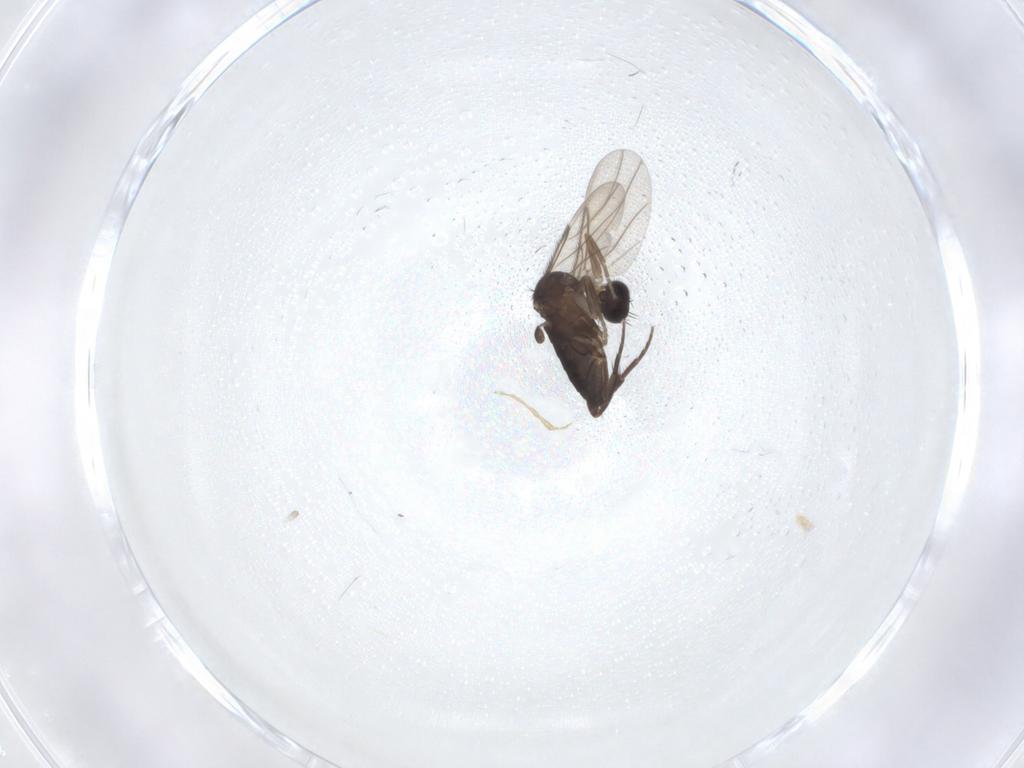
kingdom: Animalia
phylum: Arthropoda
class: Insecta
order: Diptera
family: Phoridae
